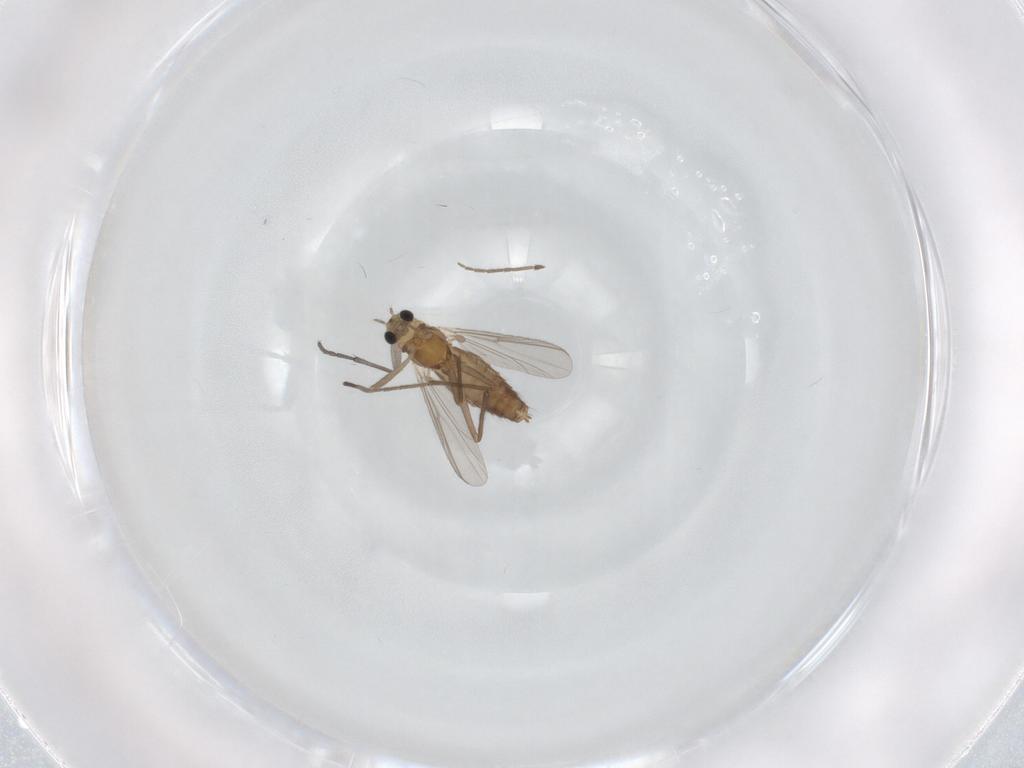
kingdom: Animalia
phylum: Arthropoda
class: Insecta
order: Diptera
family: Sciaridae
